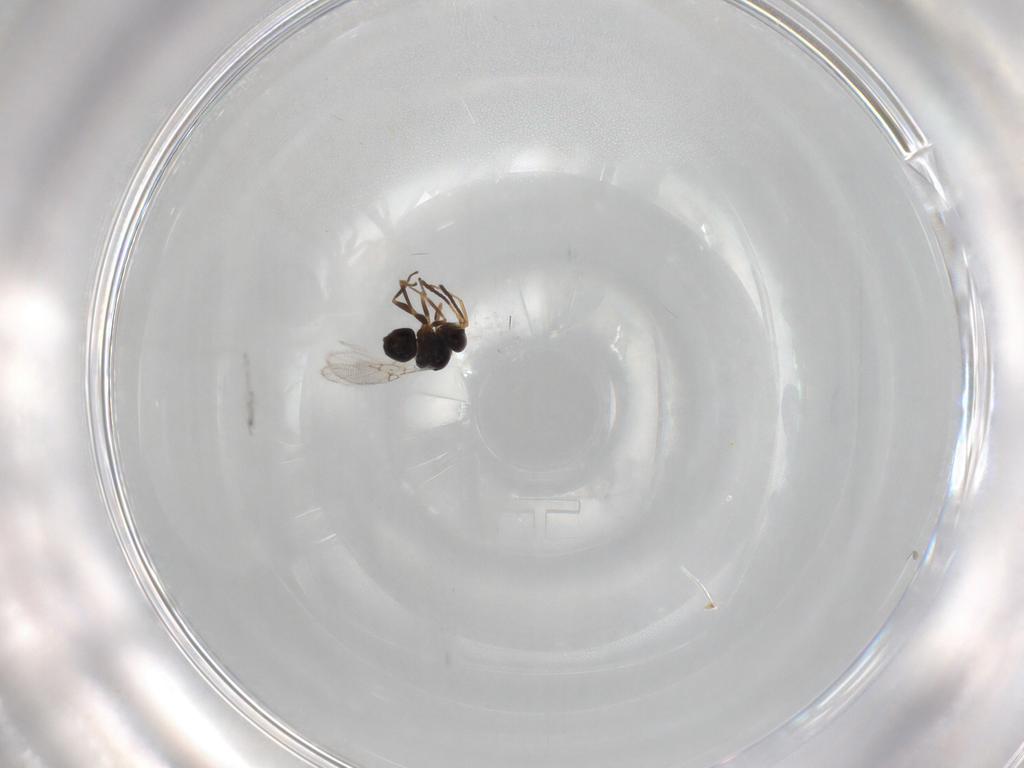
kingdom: Animalia
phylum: Arthropoda
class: Insecta
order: Hymenoptera
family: Figitidae
